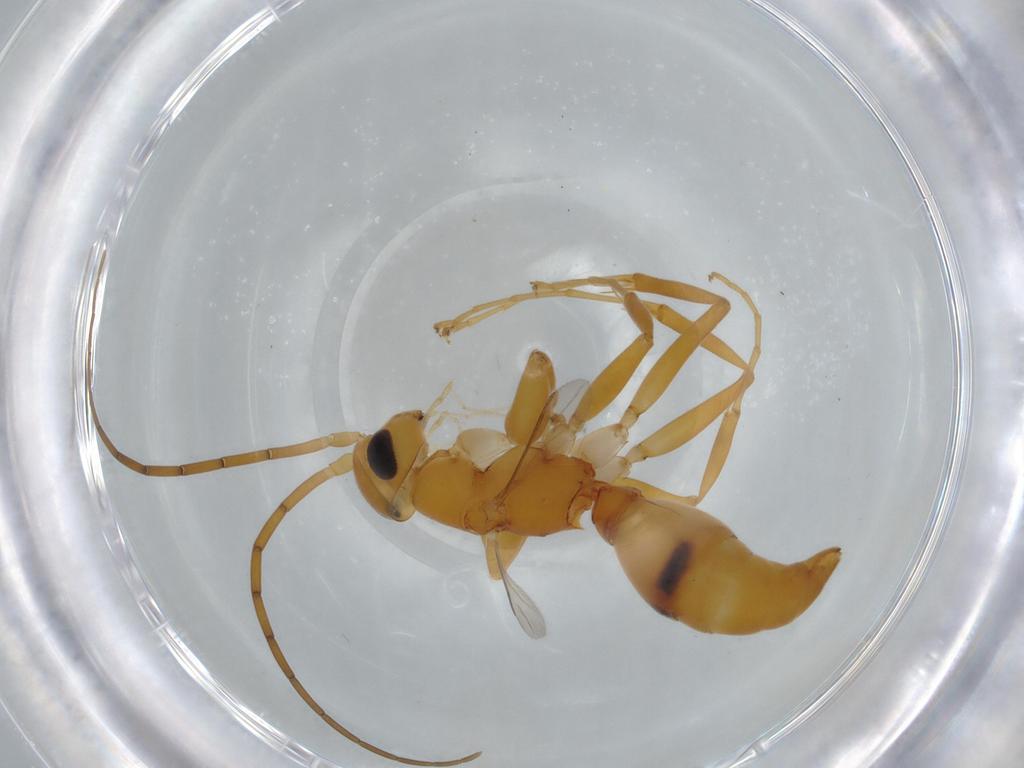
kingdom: Animalia
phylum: Arthropoda
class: Insecta
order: Hymenoptera
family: Rhopalosomatidae
